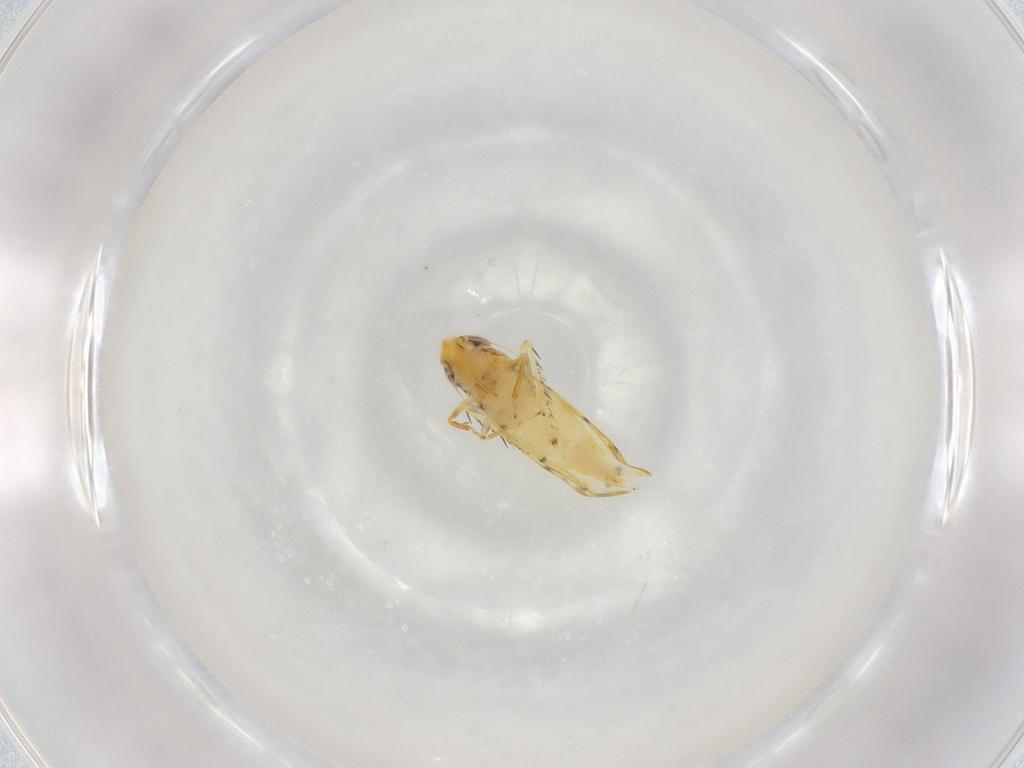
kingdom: Animalia
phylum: Arthropoda
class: Insecta
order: Hemiptera
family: Cicadellidae
